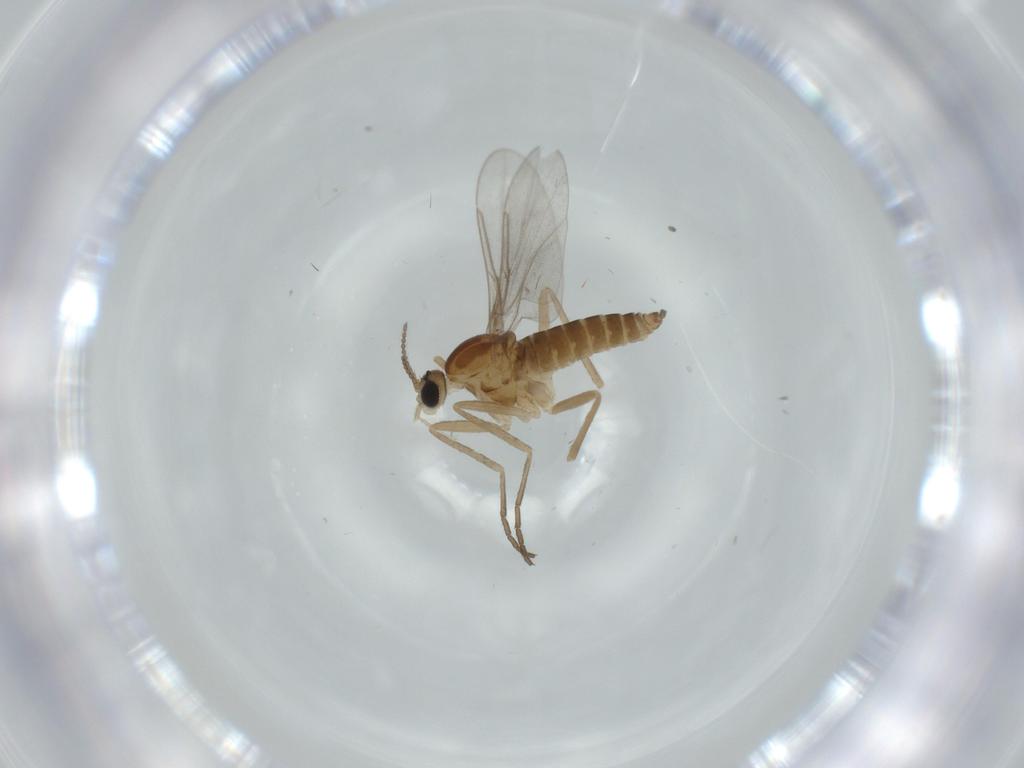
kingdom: Animalia
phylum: Arthropoda
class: Insecta
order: Diptera
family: Cecidomyiidae
